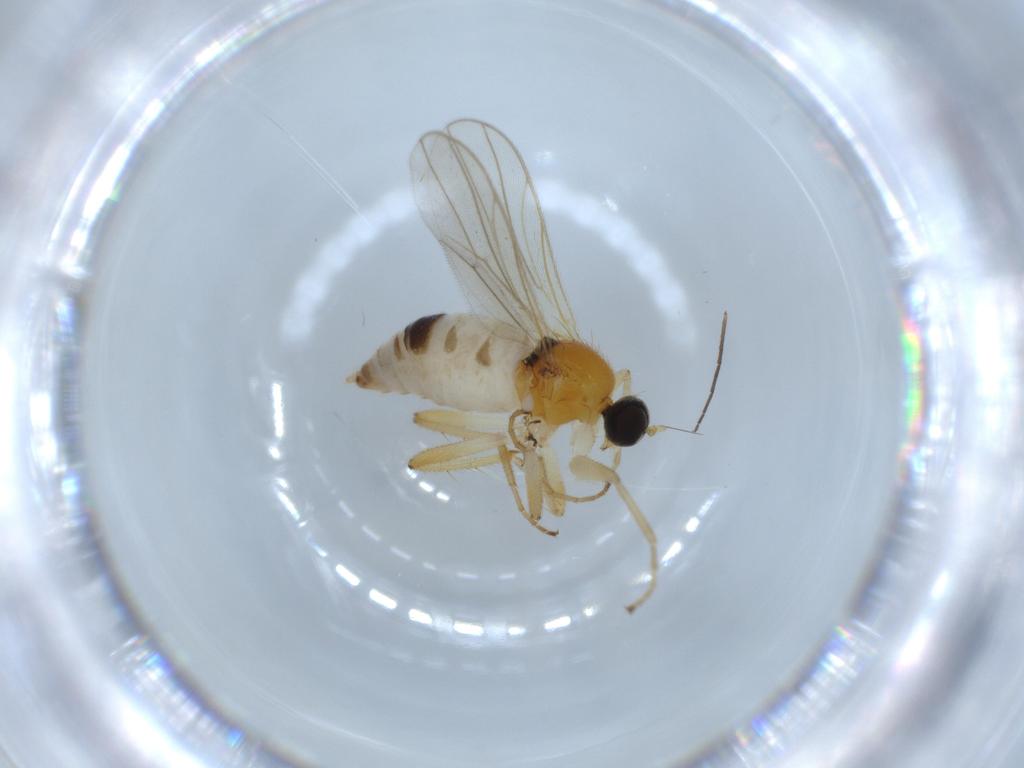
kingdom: Animalia
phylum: Arthropoda
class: Insecta
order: Diptera
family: Hybotidae
